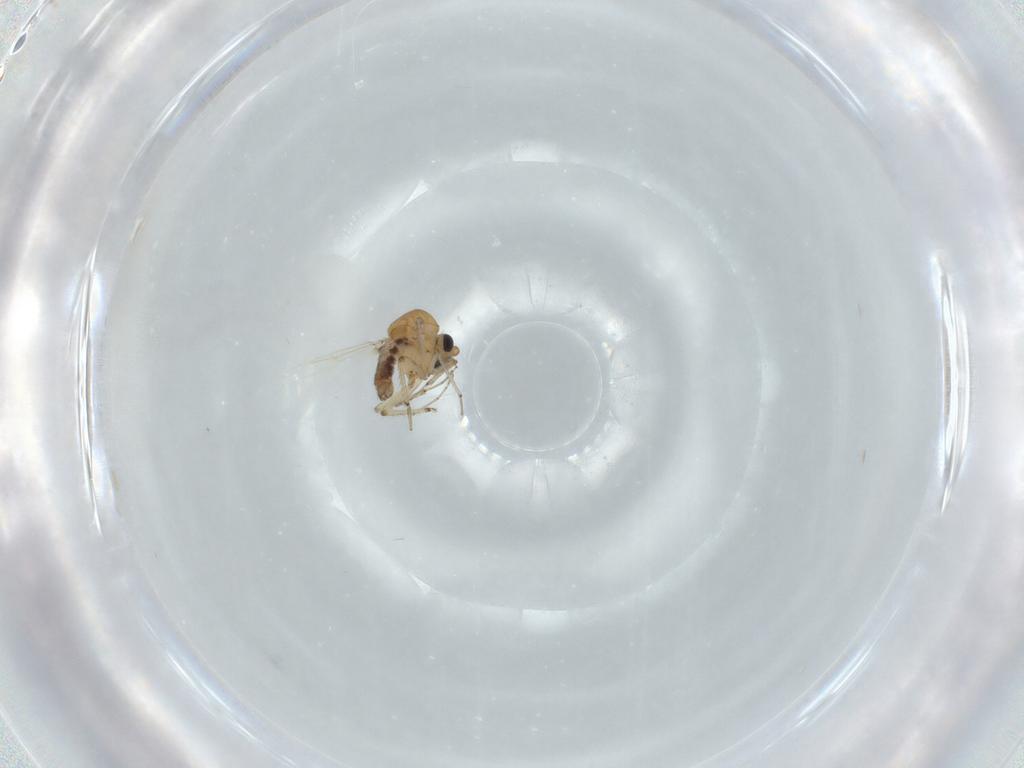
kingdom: Animalia
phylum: Arthropoda
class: Insecta
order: Diptera
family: Ceratopogonidae
